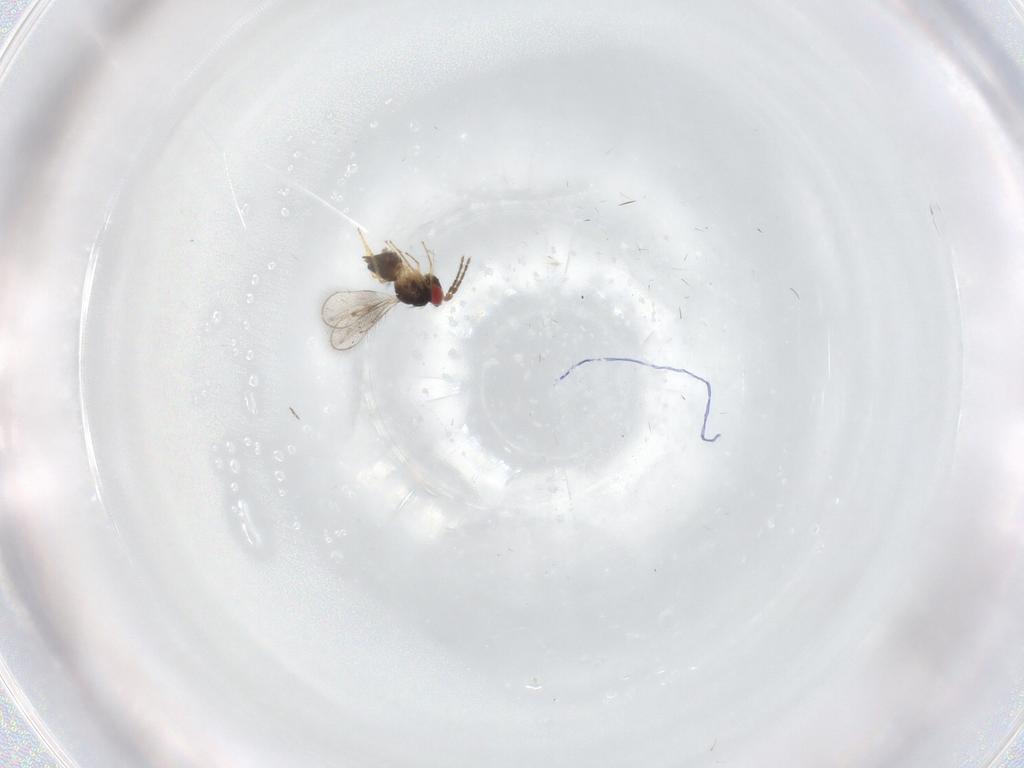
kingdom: Animalia
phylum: Arthropoda
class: Insecta
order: Hymenoptera
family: Eulophidae
